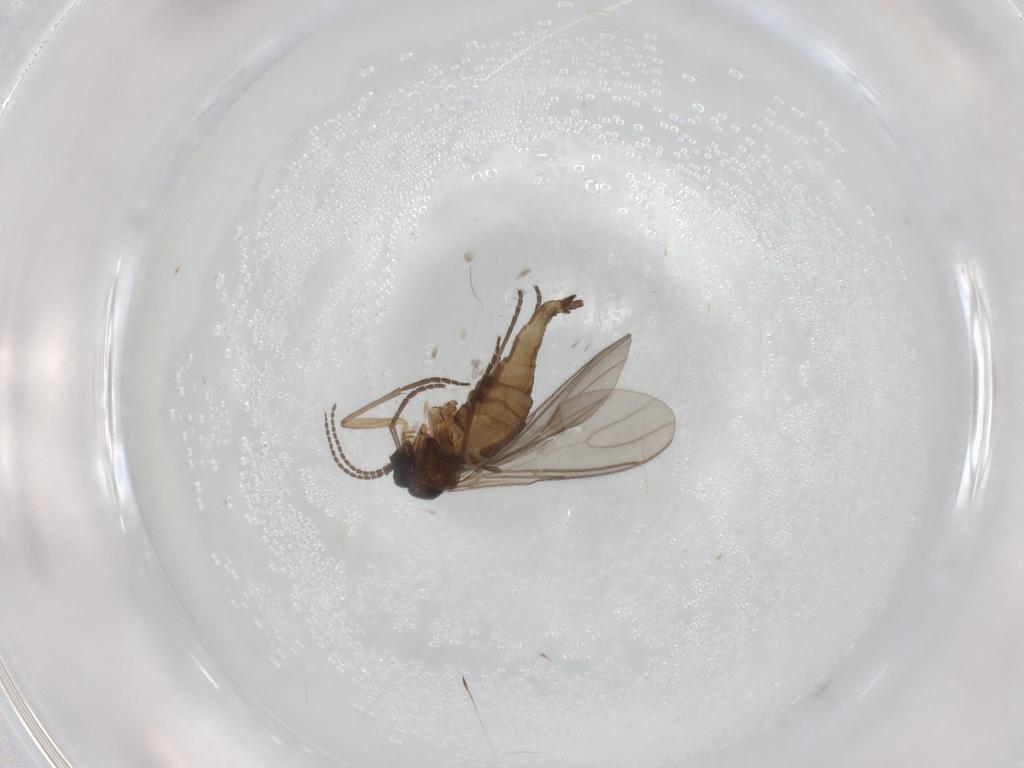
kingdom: Animalia
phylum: Arthropoda
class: Insecta
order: Diptera
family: Sciaridae
